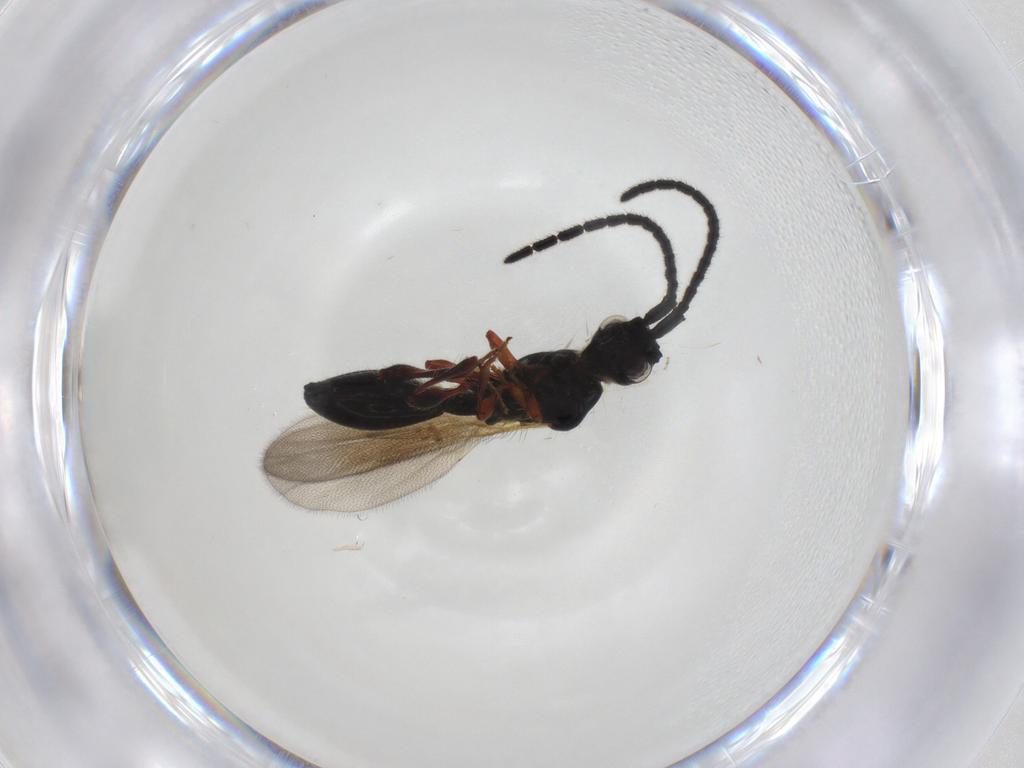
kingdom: Animalia
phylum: Arthropoda
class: Insecta
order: Hymenoptera
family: Diapriidae
